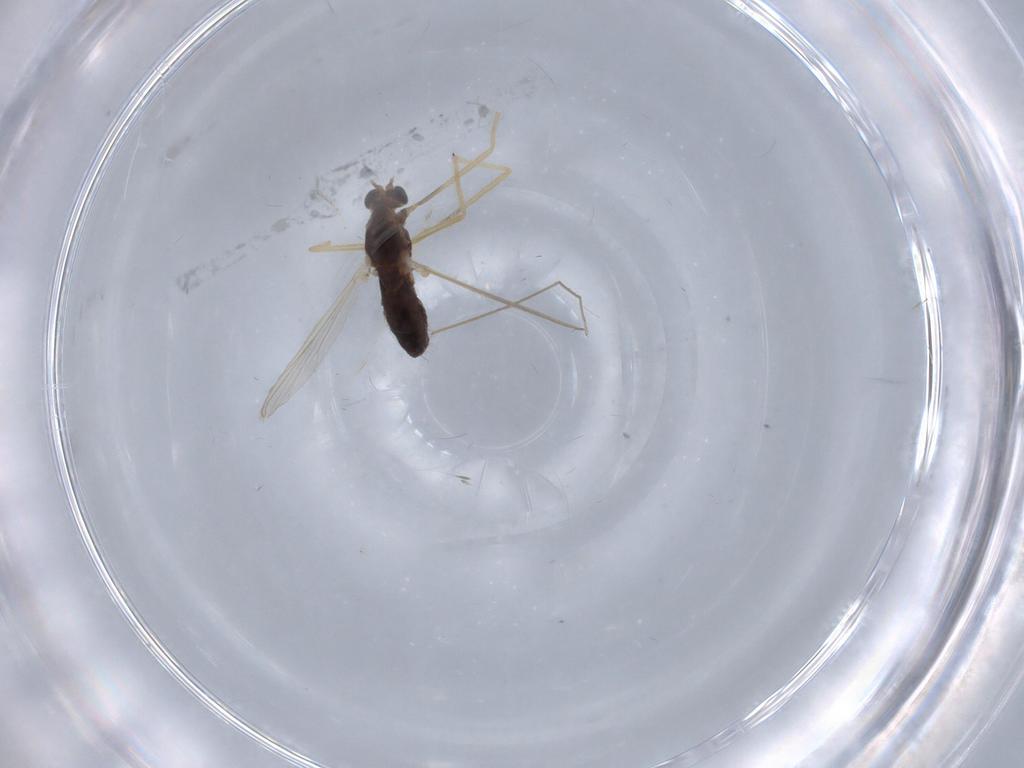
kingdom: Animalia
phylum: Arthropoda
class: Insecta
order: Diptera
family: Chironomidae
